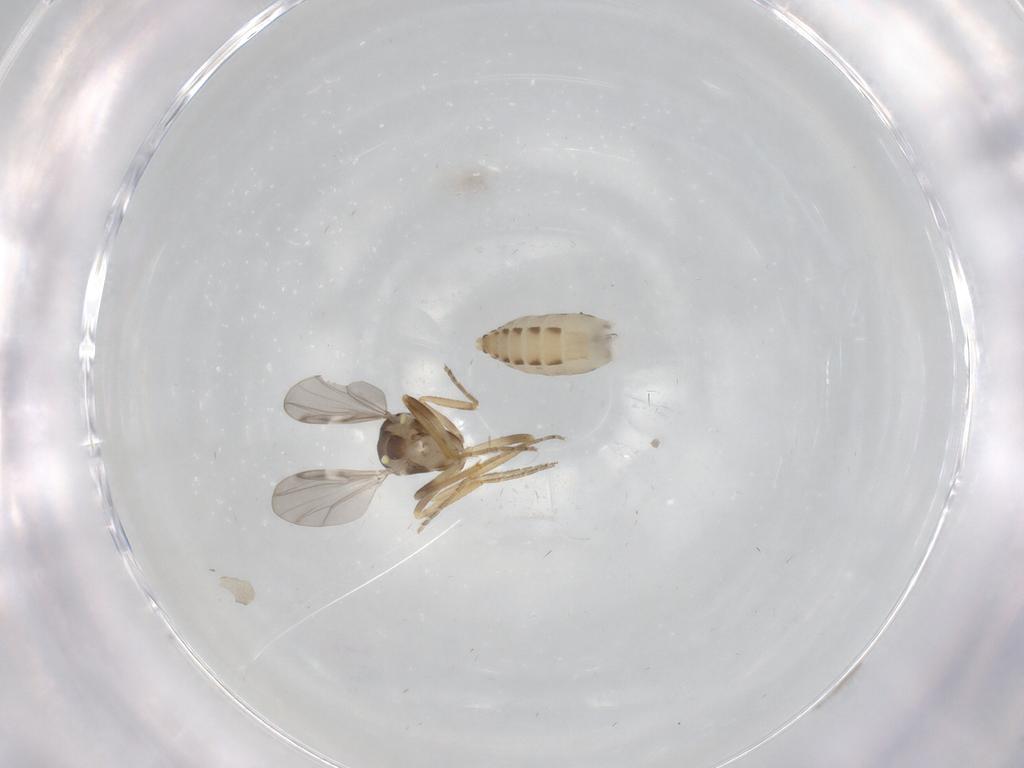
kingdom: Animalia
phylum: Arthropoda
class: Insecta
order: Diptera
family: Ceratopogonidae
